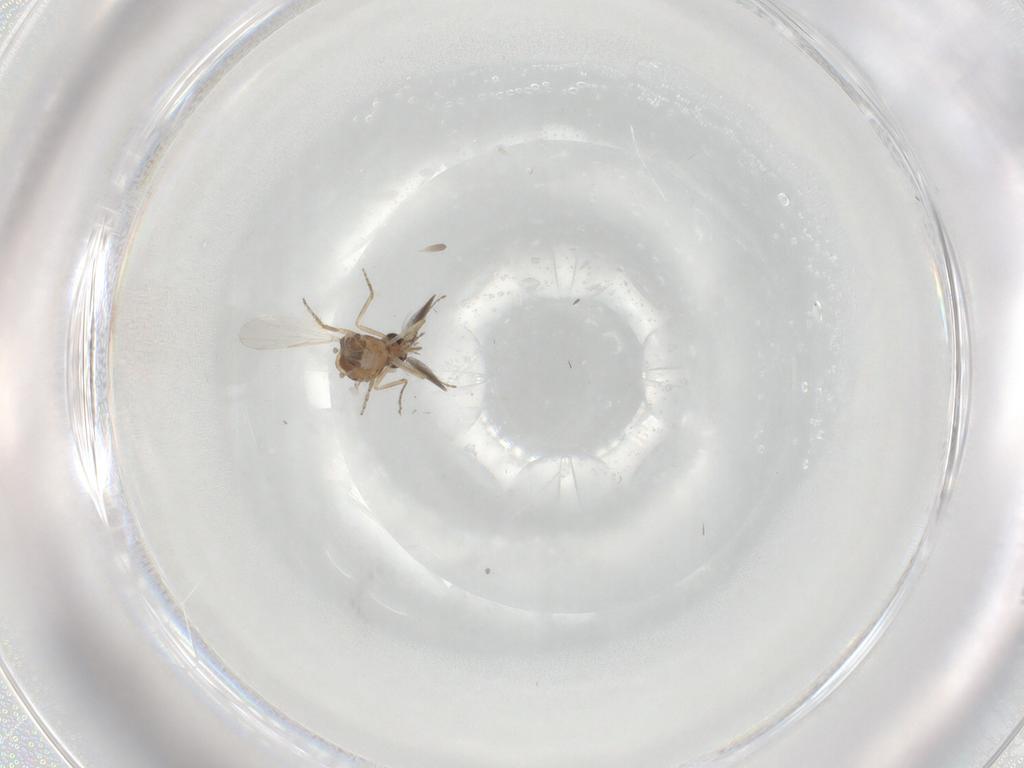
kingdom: Animalia
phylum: Arthropoda
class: Insecta
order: Diptera
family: Ceratopogonidae
